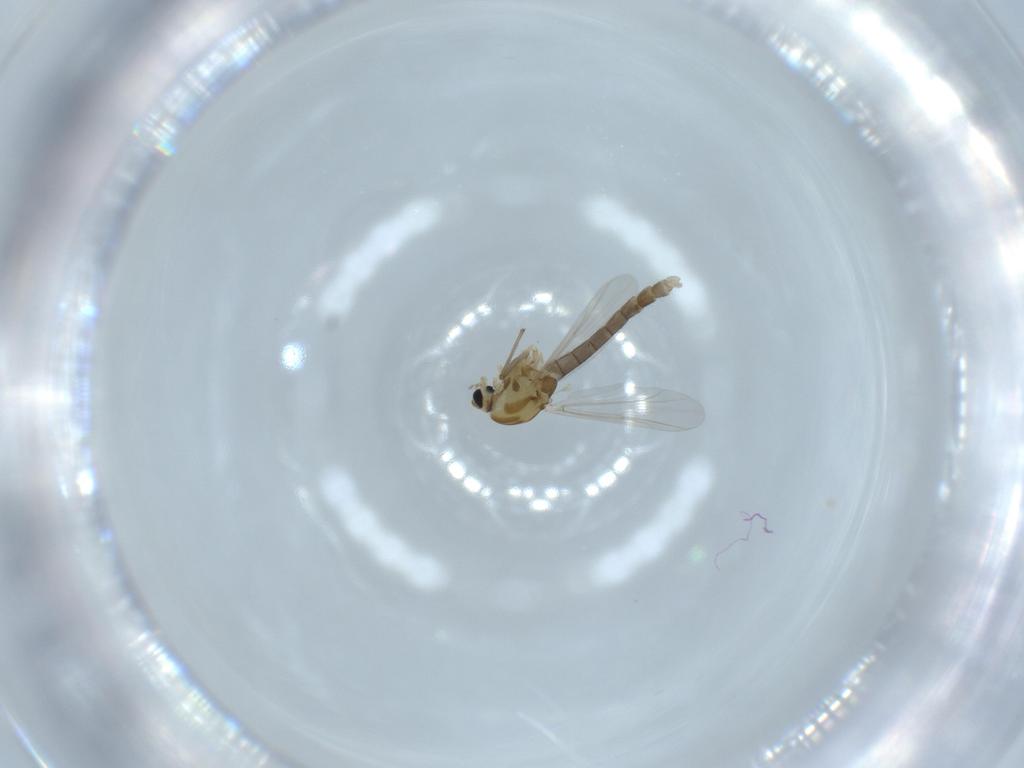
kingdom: Animalia
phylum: Arthropoda
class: Insecta
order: Diptera
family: Chironomidae
